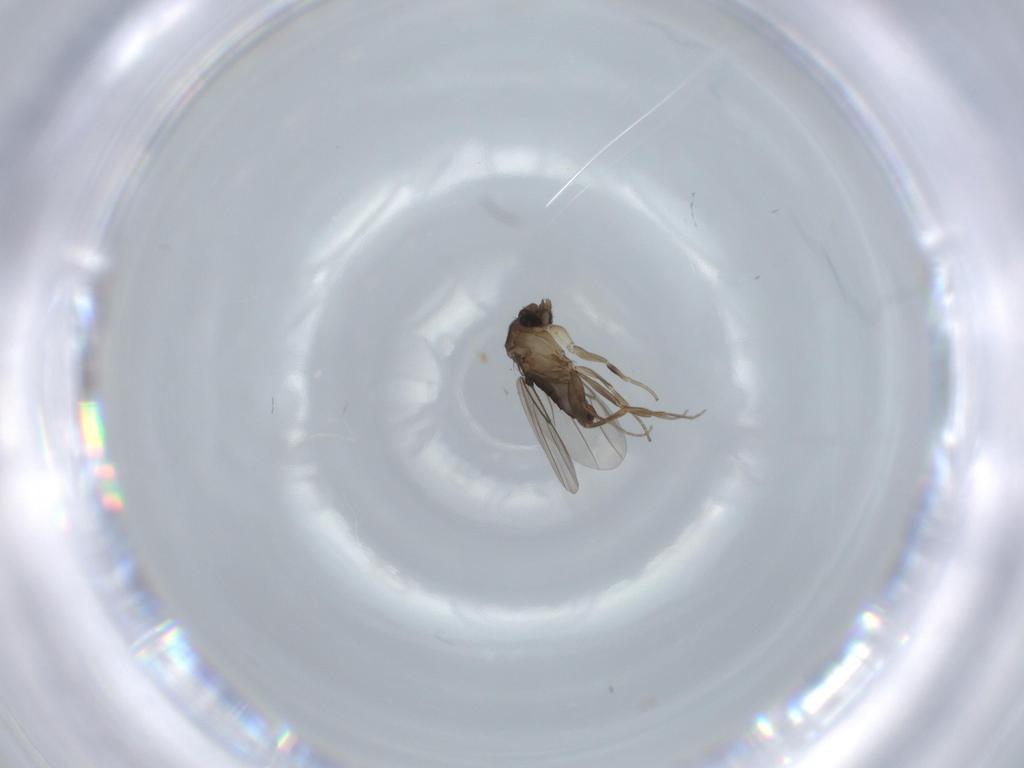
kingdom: Animalia
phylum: Arthropoda
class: Insecta
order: Diptera
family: Phoridae
